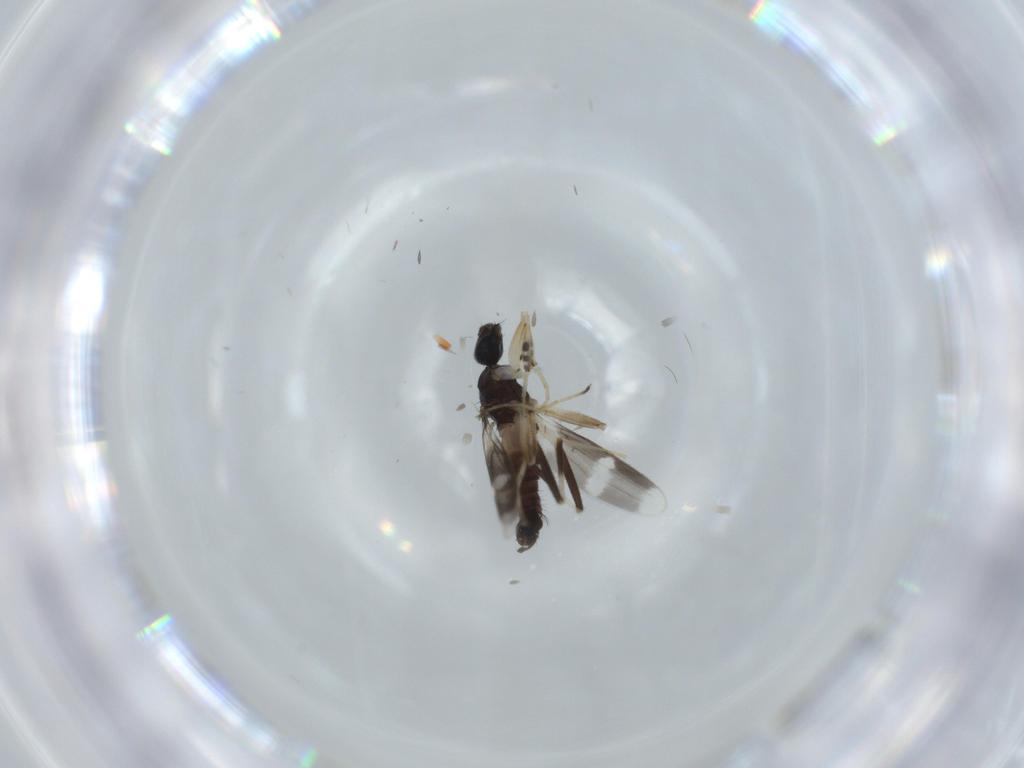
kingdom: Animalia
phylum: Arthropoda
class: Insecta
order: Diptera
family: Hybotidae
